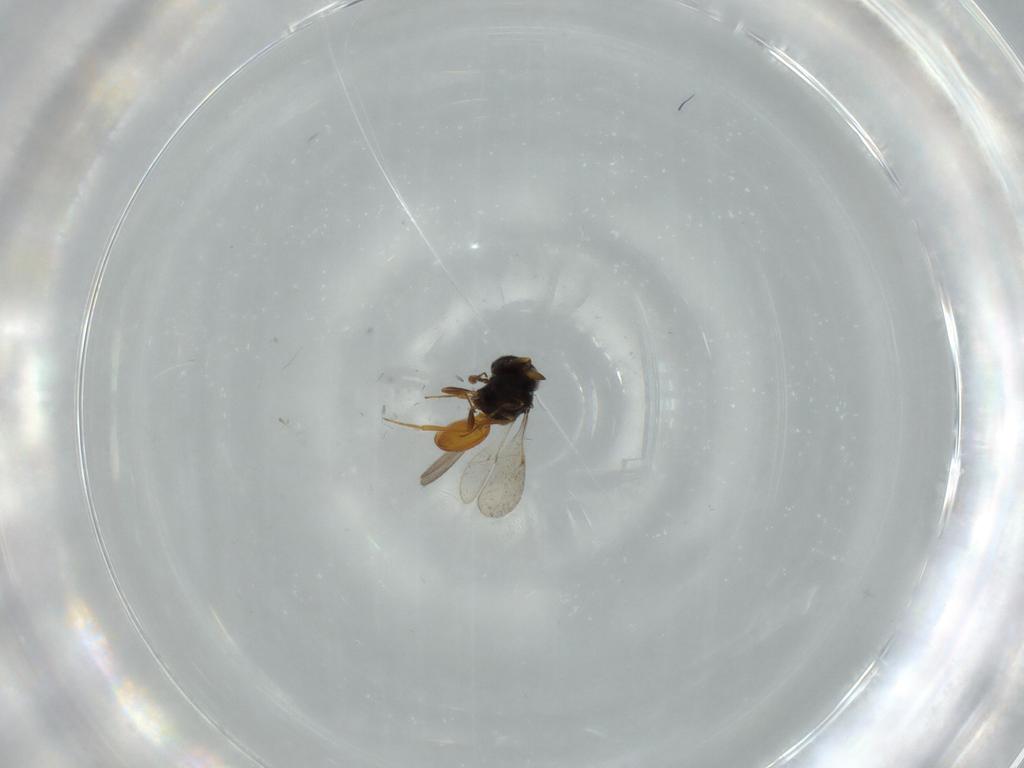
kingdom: Animalia
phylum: Arthropoda
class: Insecta
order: Hymenoptera
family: Scelionidae
